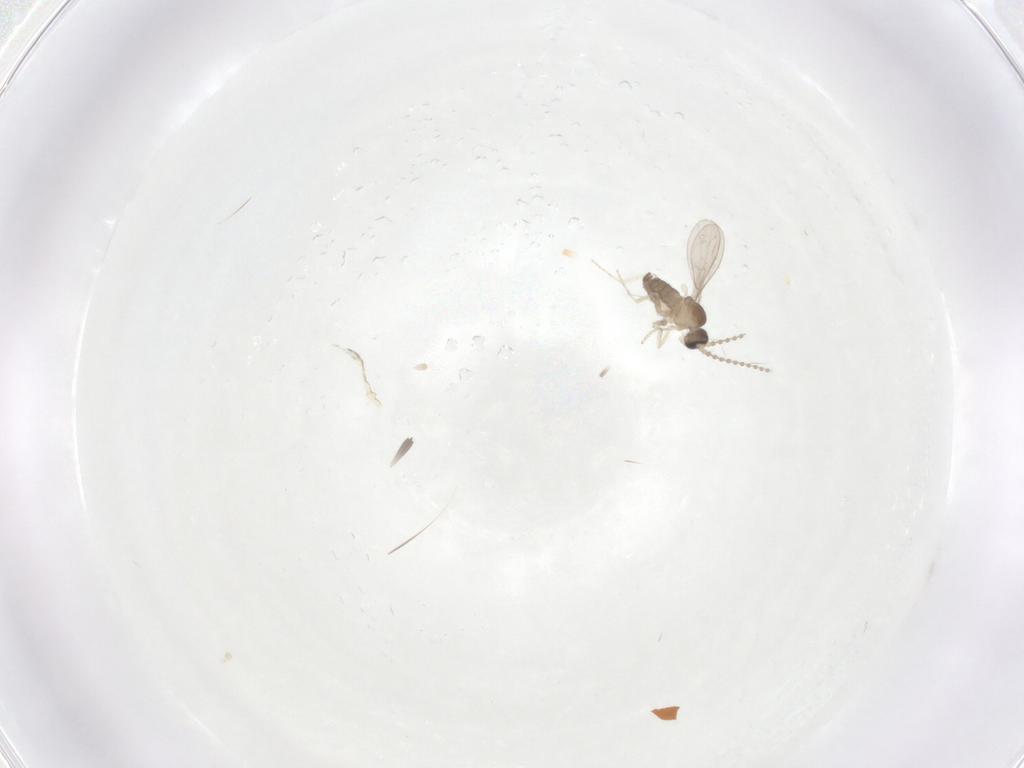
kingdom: Animalia
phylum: Arthropoda
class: Insecta
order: Diptera
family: Cecidomyiidae
